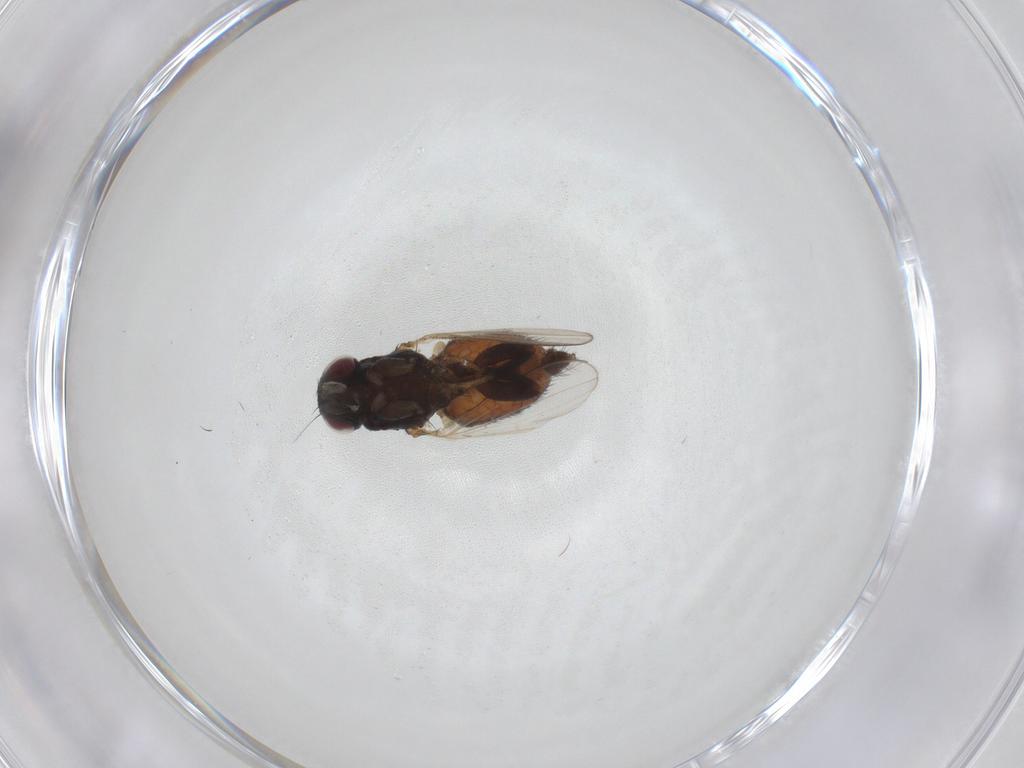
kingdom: Animalia
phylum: Arthropoda
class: Insecta
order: Diptera
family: Milichiidae
